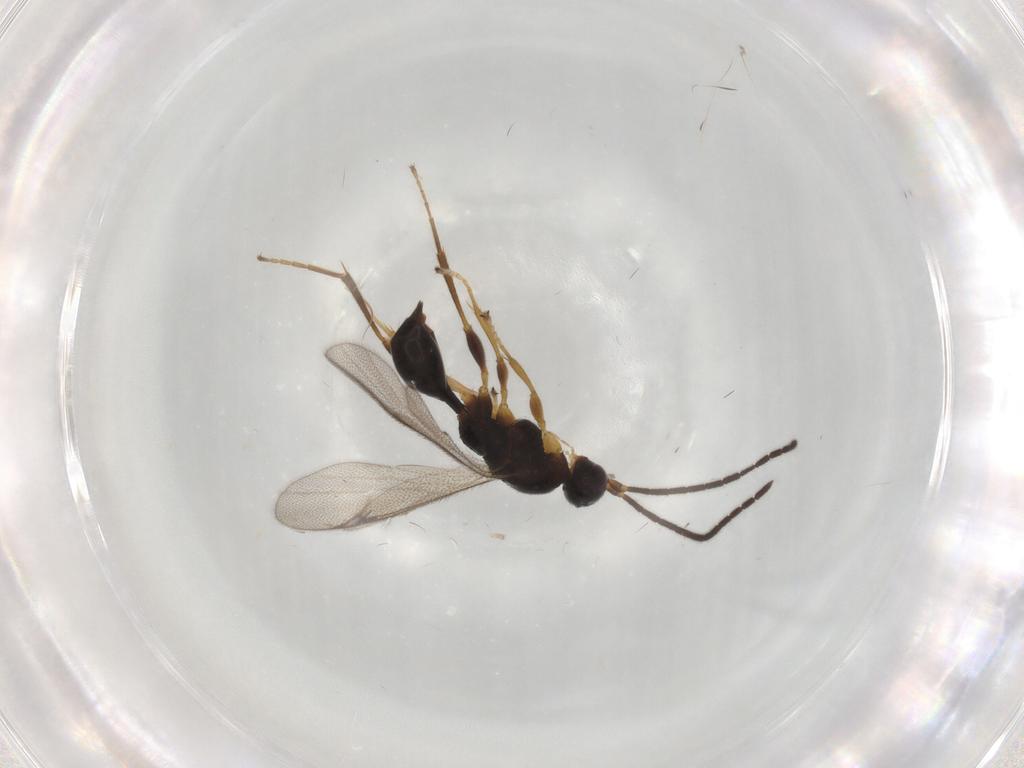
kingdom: Animalia
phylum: Arthropoda
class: Insecta
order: Hymenoptera
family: Proctotrupidae
